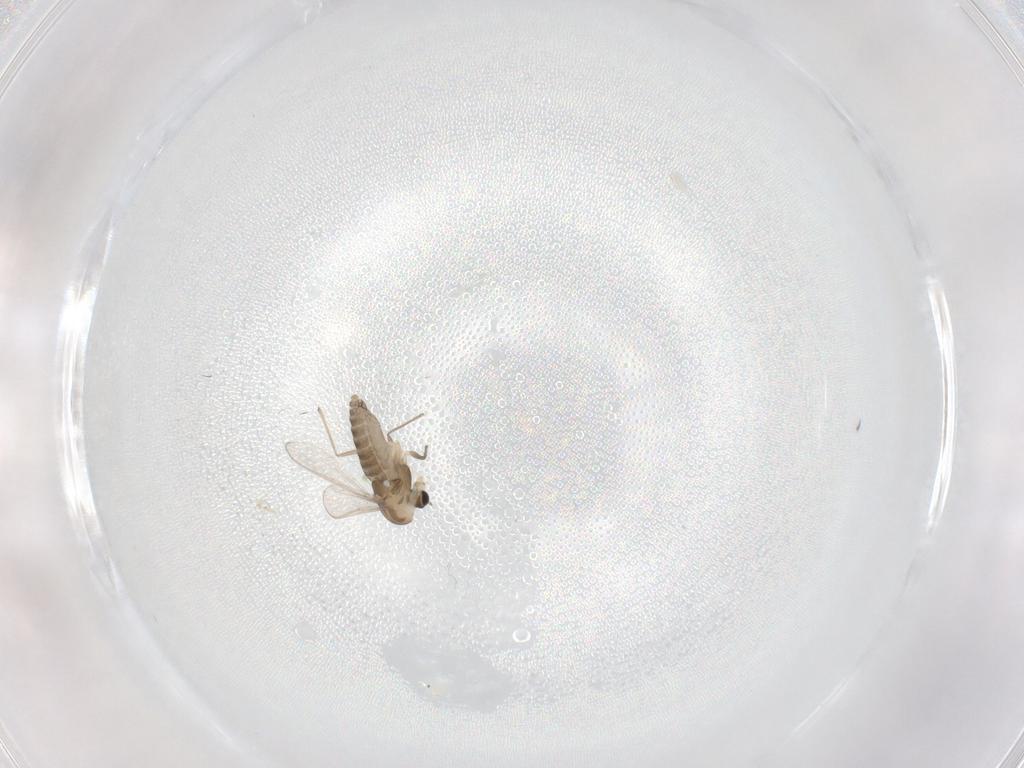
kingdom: Animalia
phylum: Arthropoda
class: Insecta
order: Diptera
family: Chironomidae
